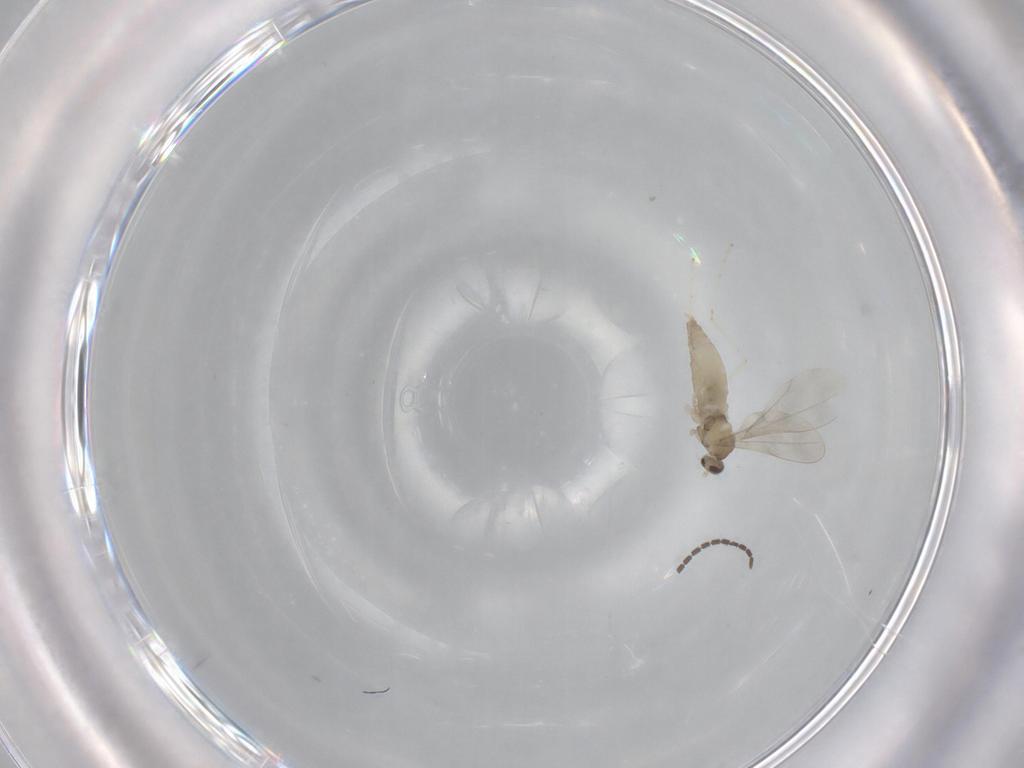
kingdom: Animalia
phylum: Arthropoda
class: Insecta
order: Diptera
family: Cecidomyiidae
